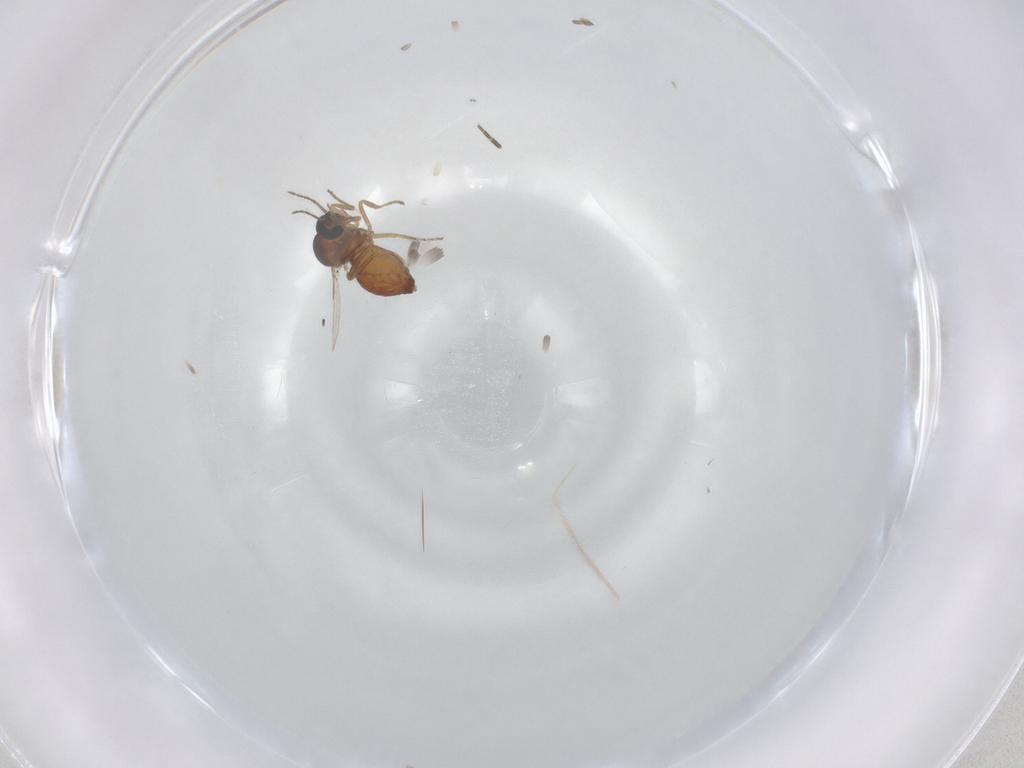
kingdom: Animalia
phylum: Arthropoda
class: Insecta
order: Diptera
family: Ceratopogonidae
